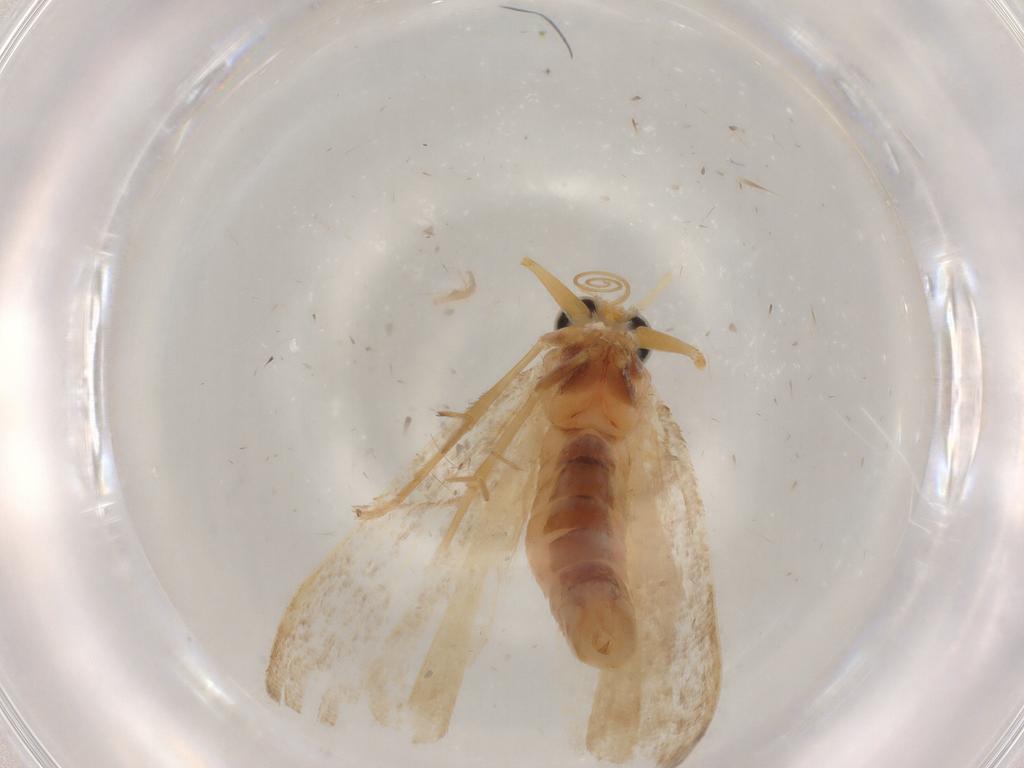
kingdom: Animalia
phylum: Arthropoda
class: Insecta
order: Lepidoptera
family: Pyralidae
